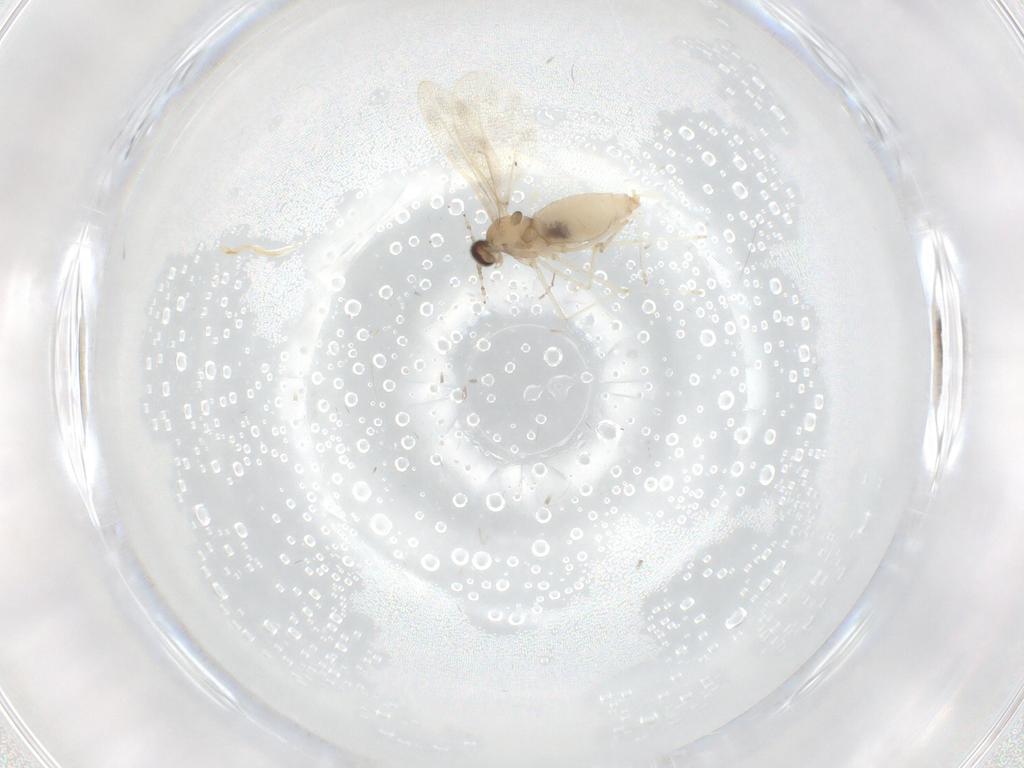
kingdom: Animalia
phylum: Arthropoda
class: Insecta
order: Diptera
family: Cecidomyiidae
